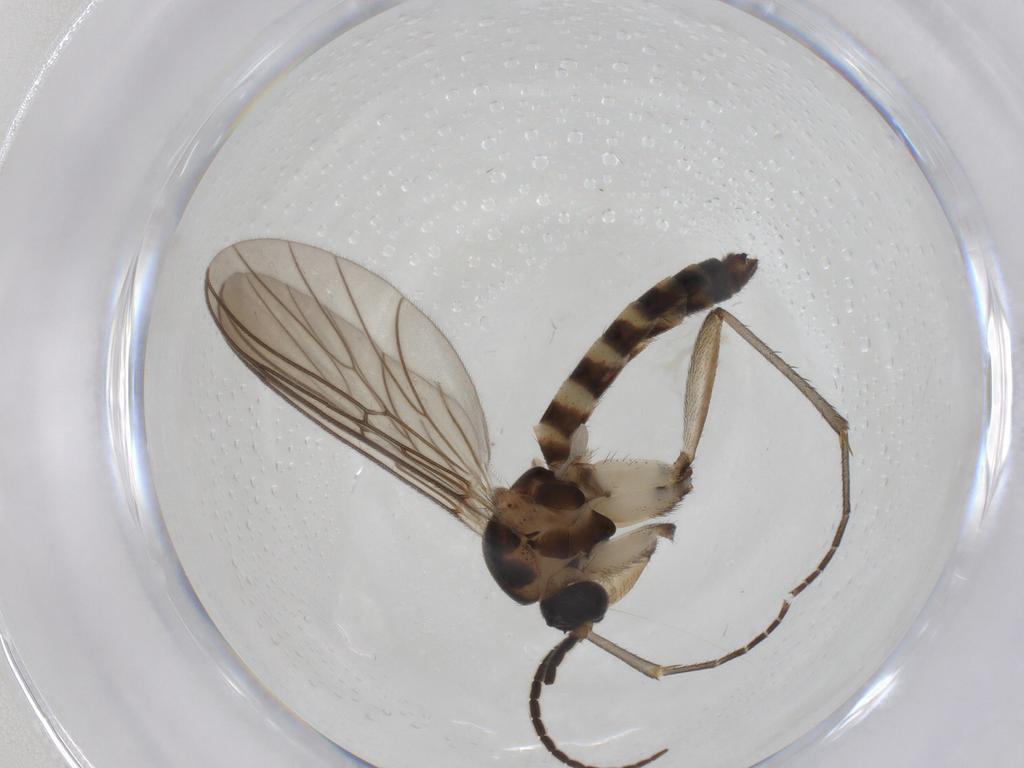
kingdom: Animalia
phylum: Arthropoda
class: Insecta
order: Diptera
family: Mycetophilidae
